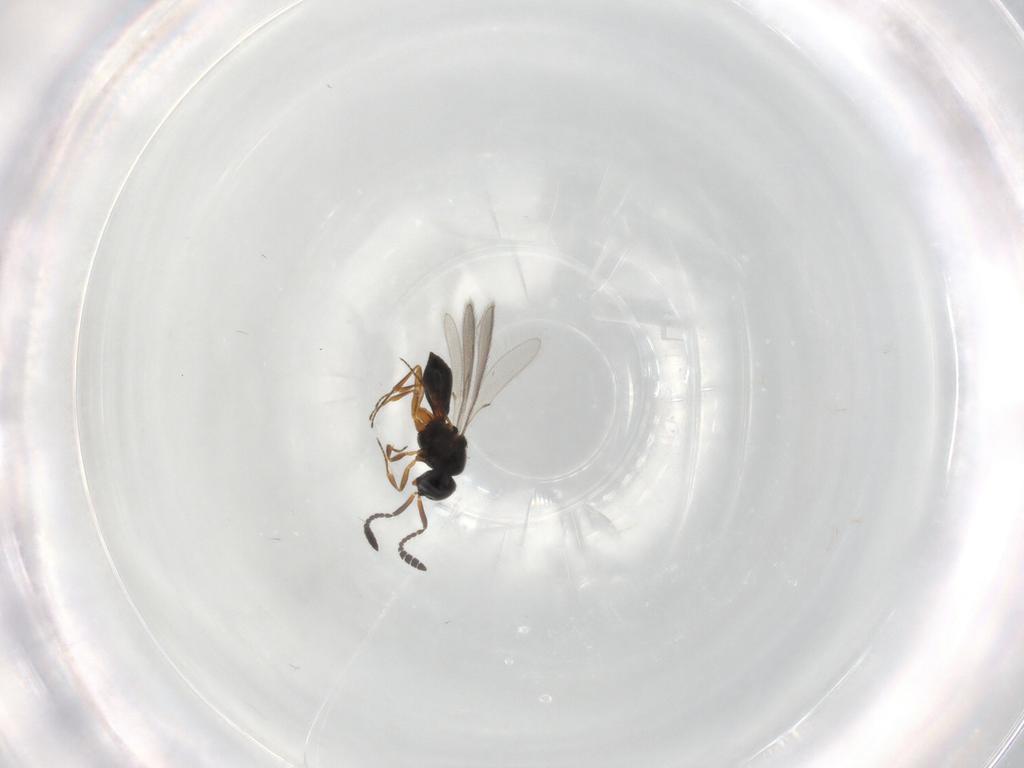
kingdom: Animalia
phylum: Arthropoda
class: Insecta
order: Hymenoptera
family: Scelionidae
